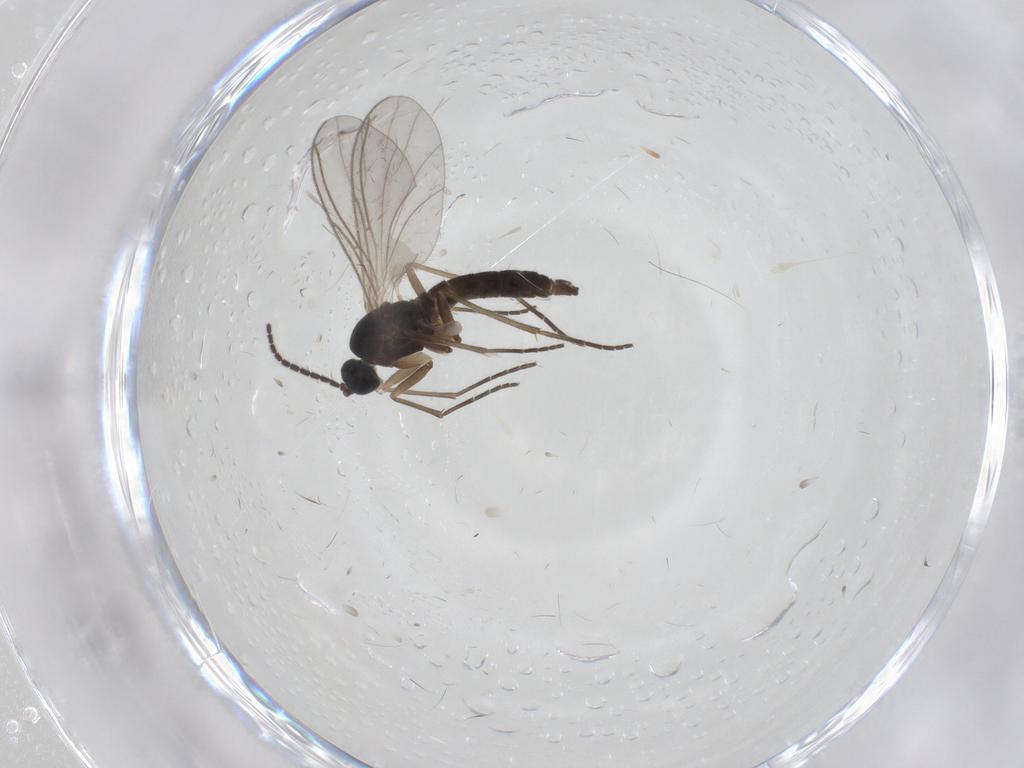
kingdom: Animalia
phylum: Arthropoda
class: Insecta
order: Diptera
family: Sciaridae
